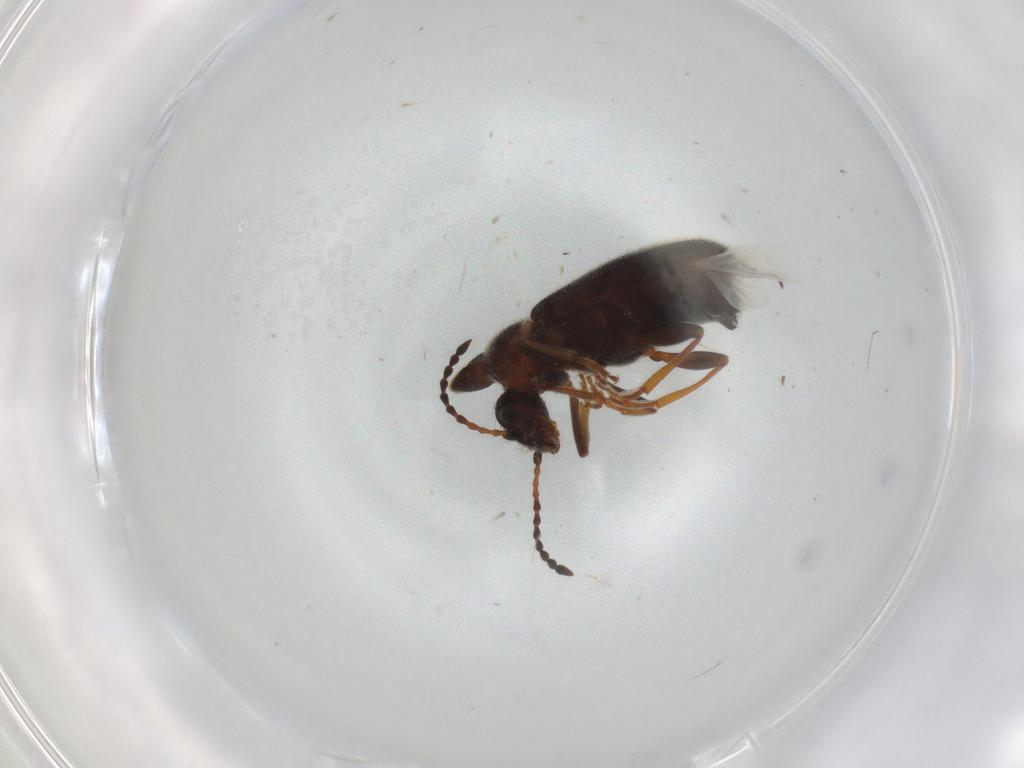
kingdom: Animalia
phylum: Arthropoda
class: Insecta
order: Coleoptera
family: Anthicidae
